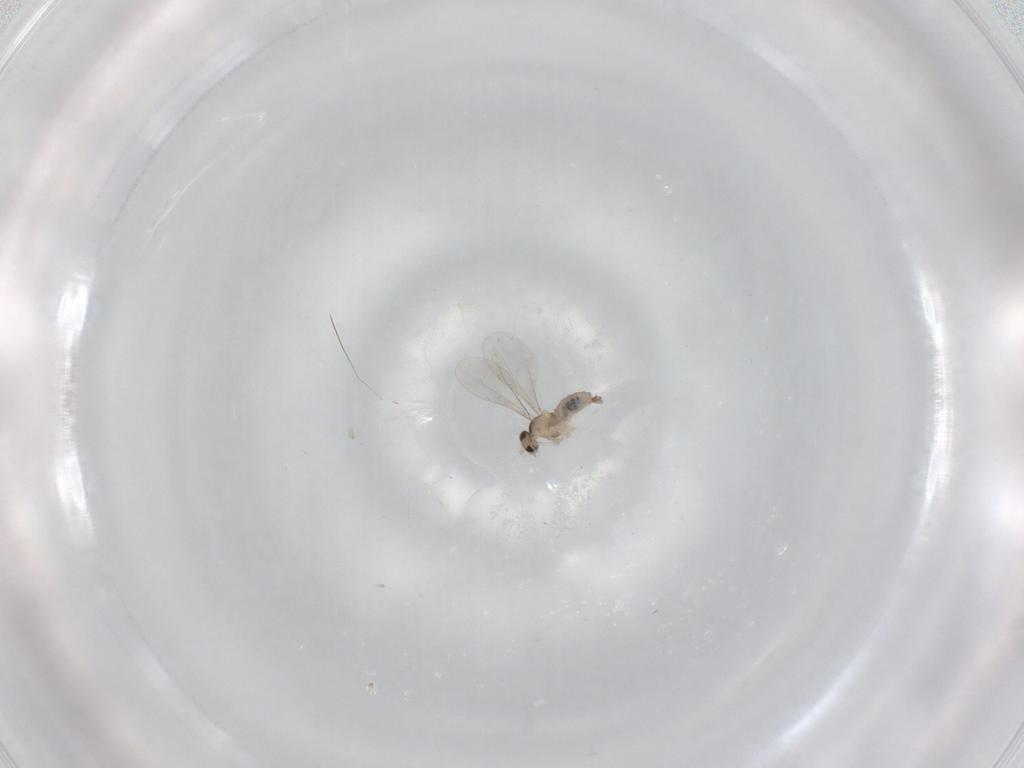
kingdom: Animalia
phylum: Arthropoda
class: Insecta
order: Diptera
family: Cecidomyiidae
